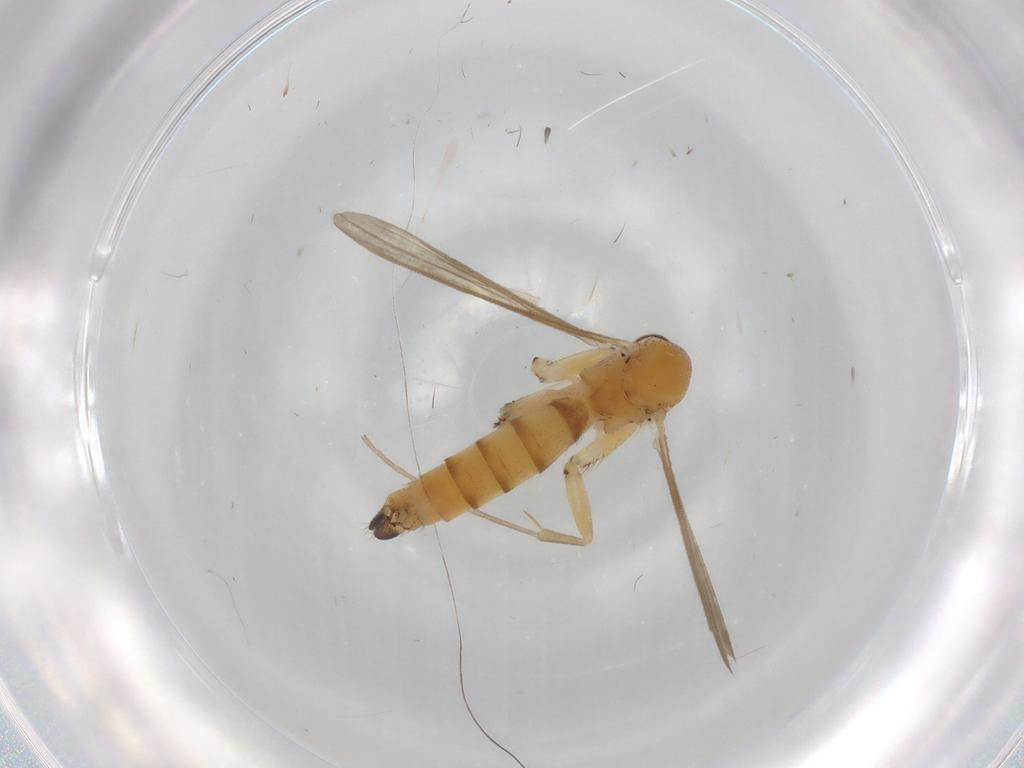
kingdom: Animalia
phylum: Arthropoda
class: Insecta
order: Diptera
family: Mycetophilidae
